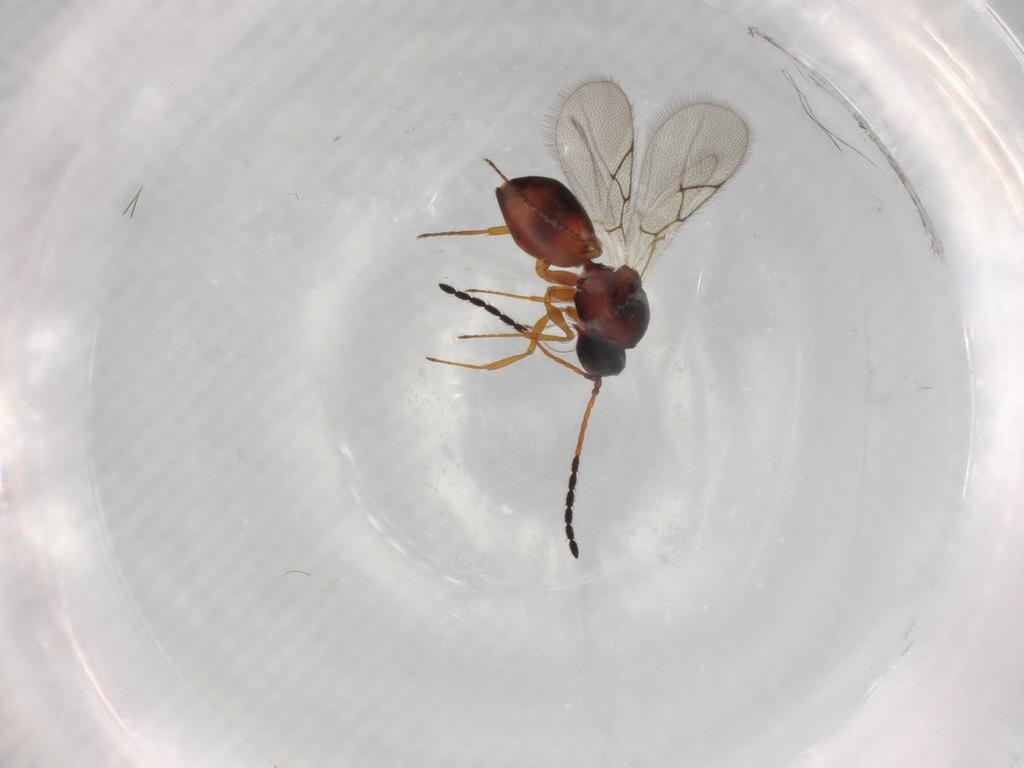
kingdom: Animalia
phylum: Arthropoda
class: Insecta
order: Hymenoptera
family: Figitidae
